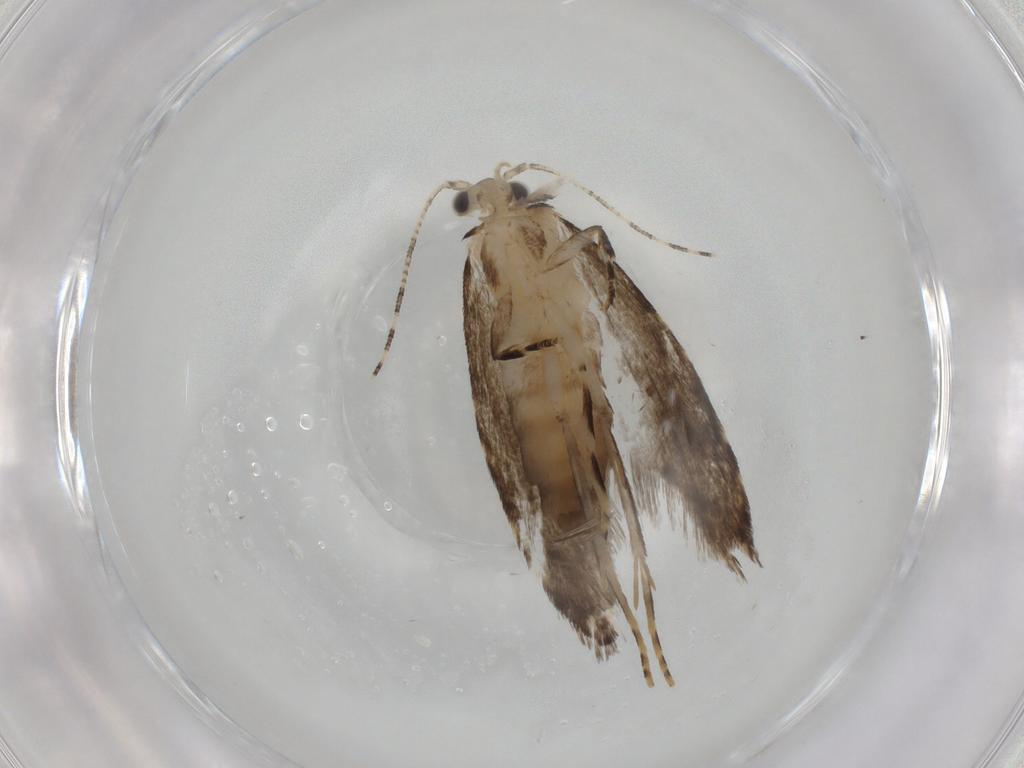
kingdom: Animalia
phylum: Arthropoda
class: Insecta
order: Lepidoptera
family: Tineidae
